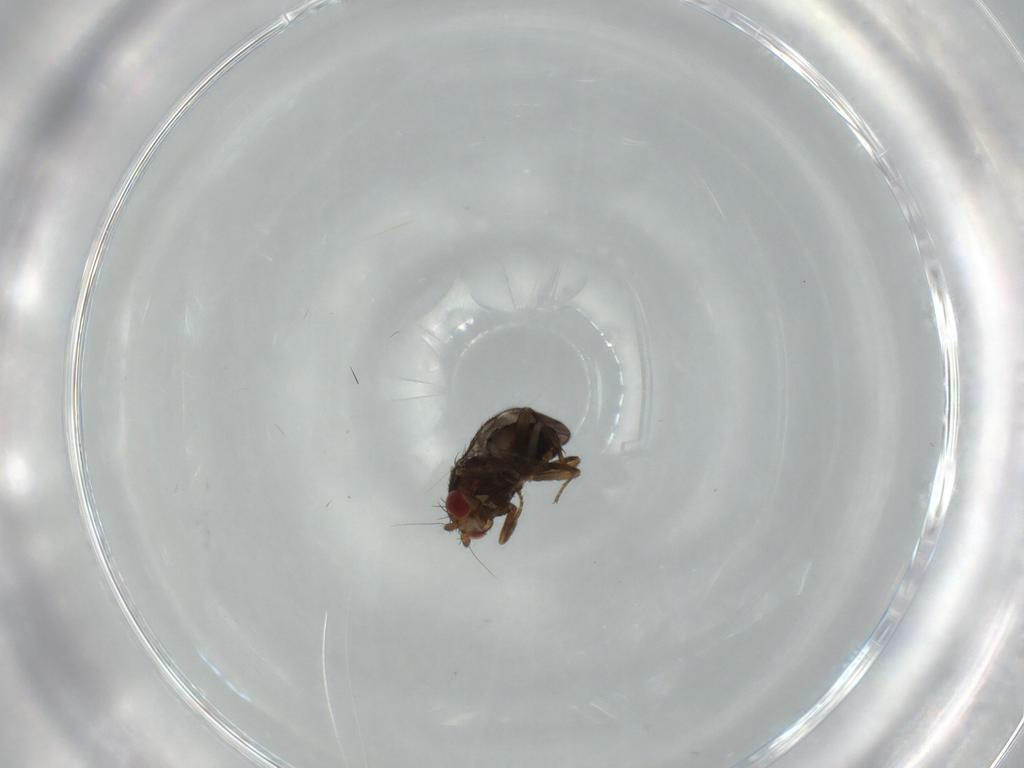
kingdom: Animalia
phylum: Arthropoda
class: Insecta
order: Diptera
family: Sphaeroceridae
